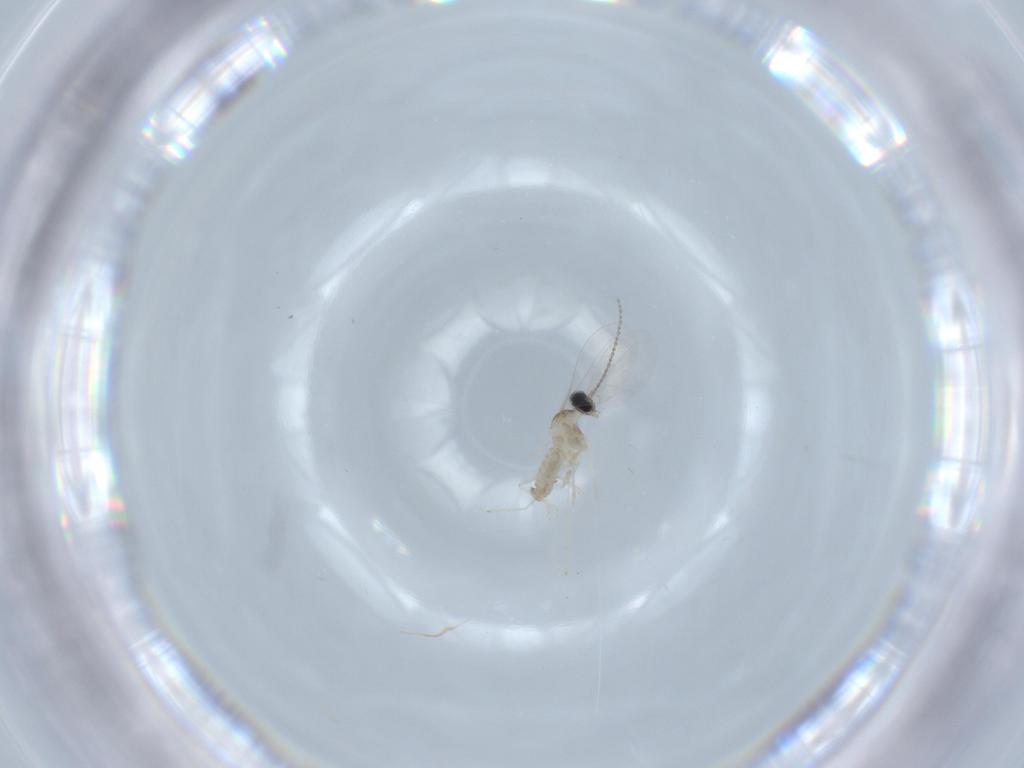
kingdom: Animalia
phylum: Arthropoda
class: Insecta
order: Diptera
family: Cecidomyiidae
